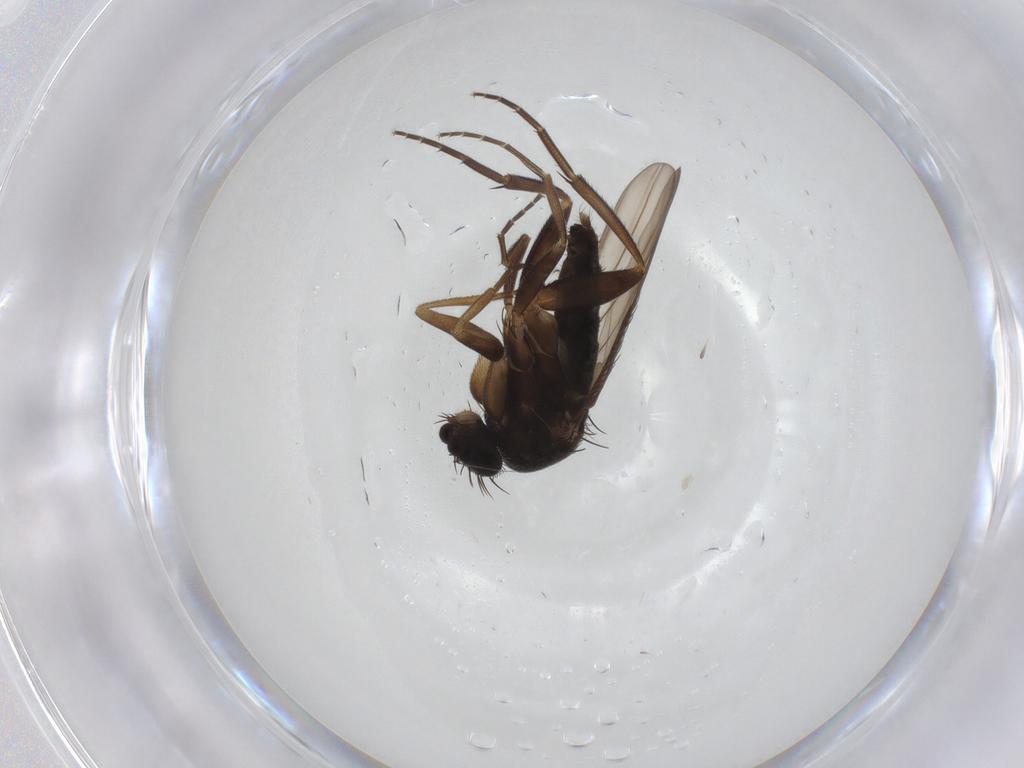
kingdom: Animalia
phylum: Arthropoda
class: Insecta
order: Diptera
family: Phoridae
